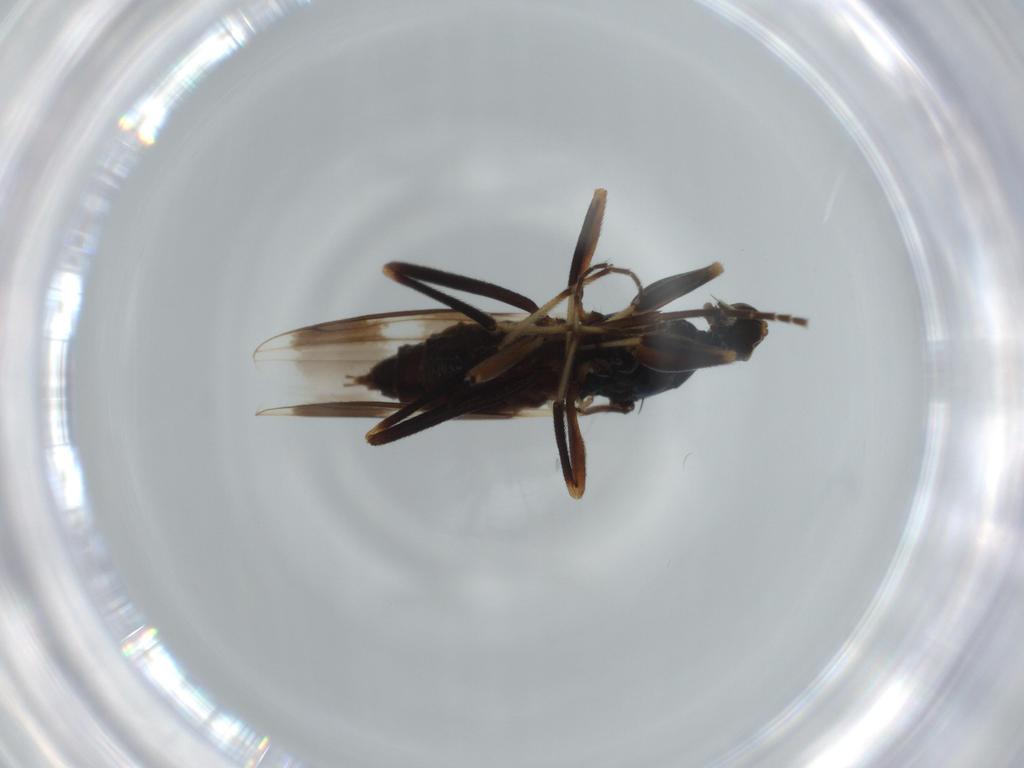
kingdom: Animalia
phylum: Arthropoda
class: Insecta
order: Diptera
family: Hybotidae
